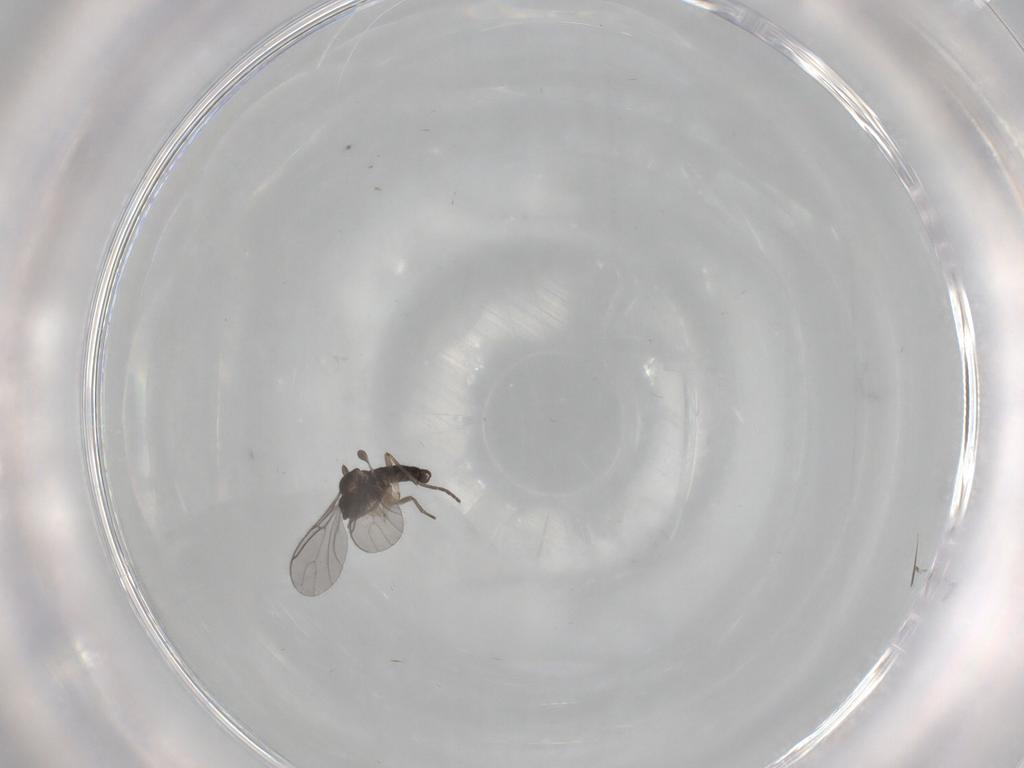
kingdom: Animalia
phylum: Arthropoda
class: Insecta
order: Diptera
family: Sciaridae
